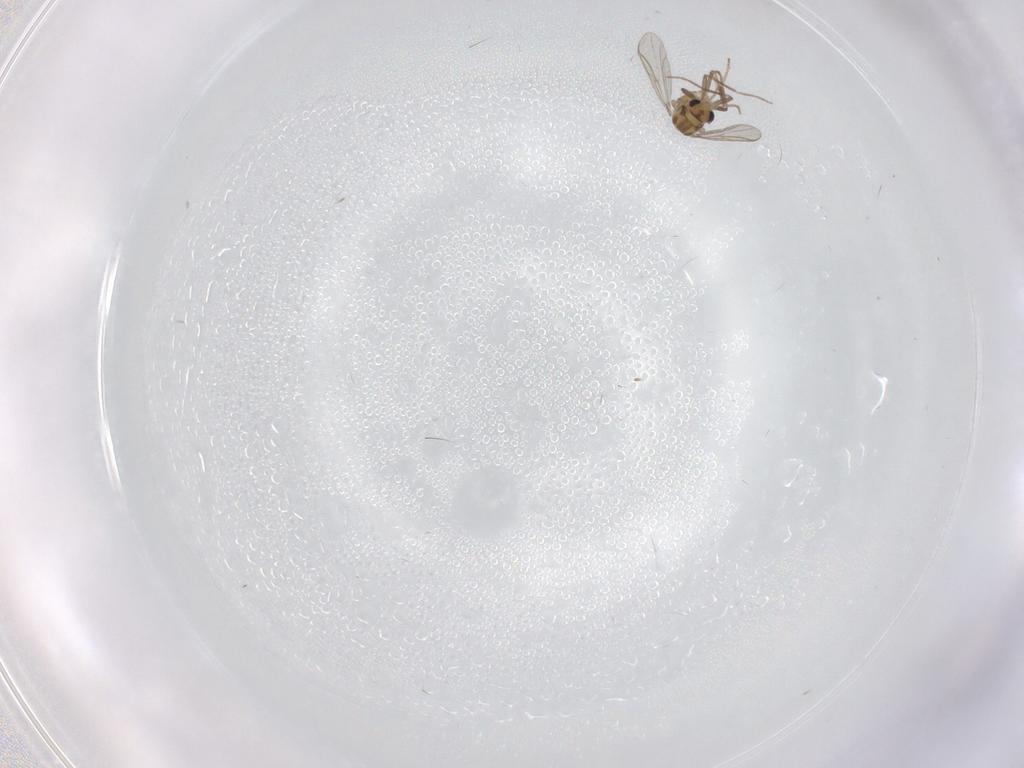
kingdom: Animalia
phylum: Arthropoda
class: Insecta
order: Diptera
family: Chironomidae
